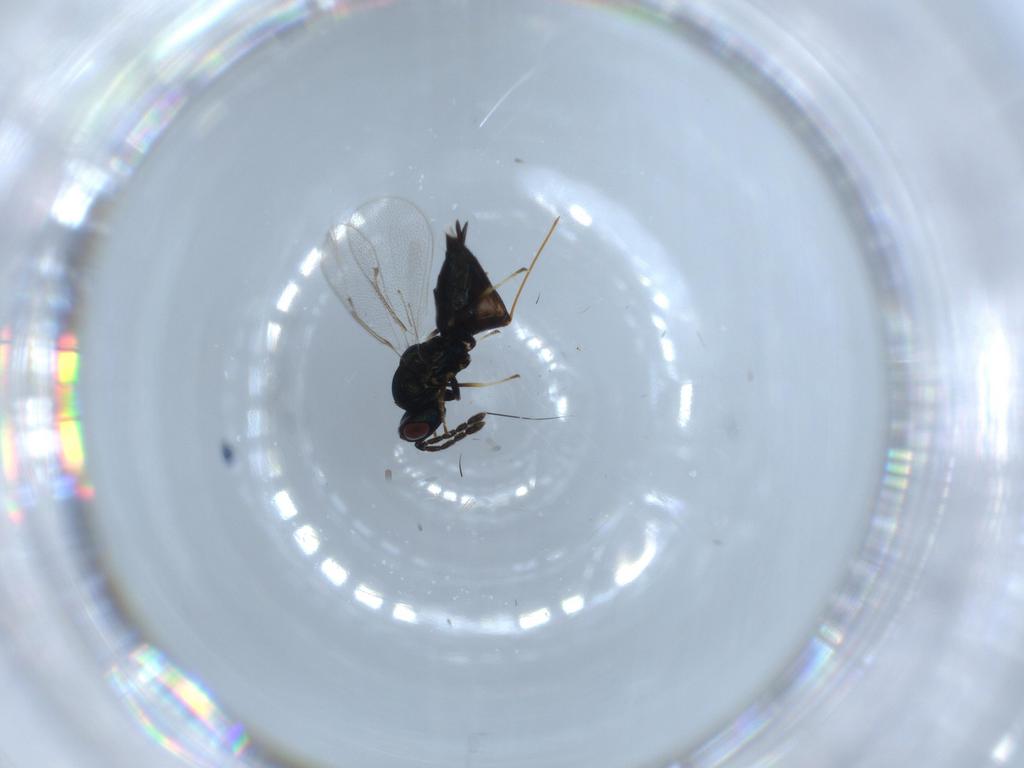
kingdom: Animalia
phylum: Arthropoda
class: Insecta
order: Hymenoptera
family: Eulophidae
